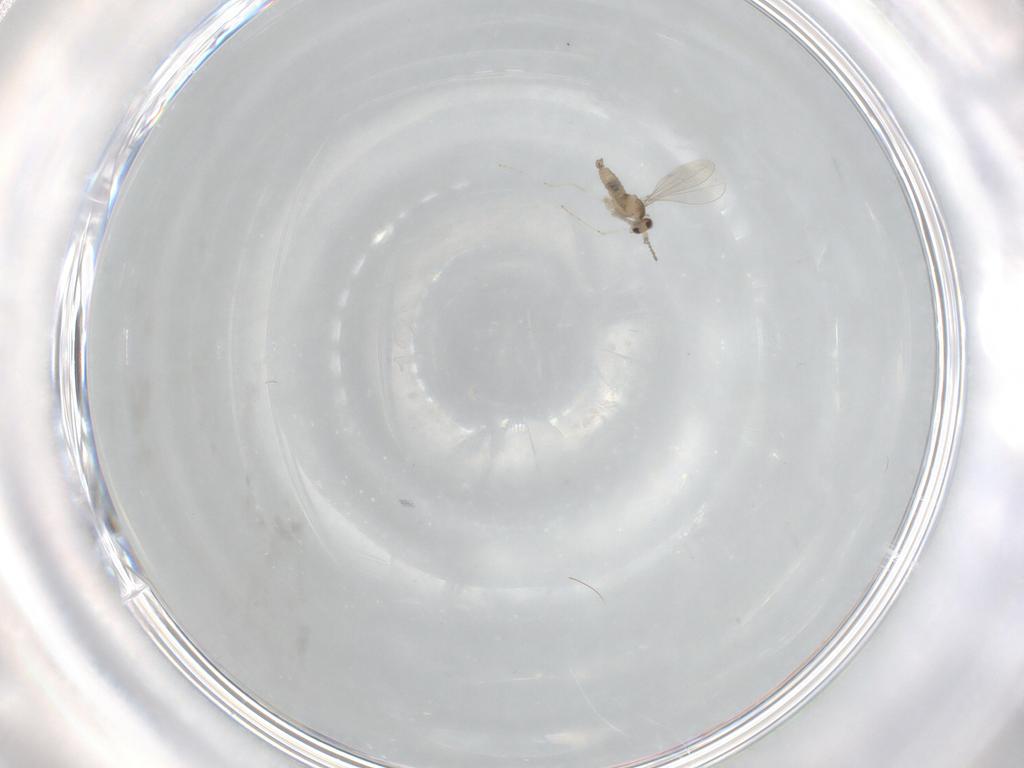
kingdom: Animalia
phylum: Arthropoda
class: Insecta
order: Diptera
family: Cecidomyiidae
